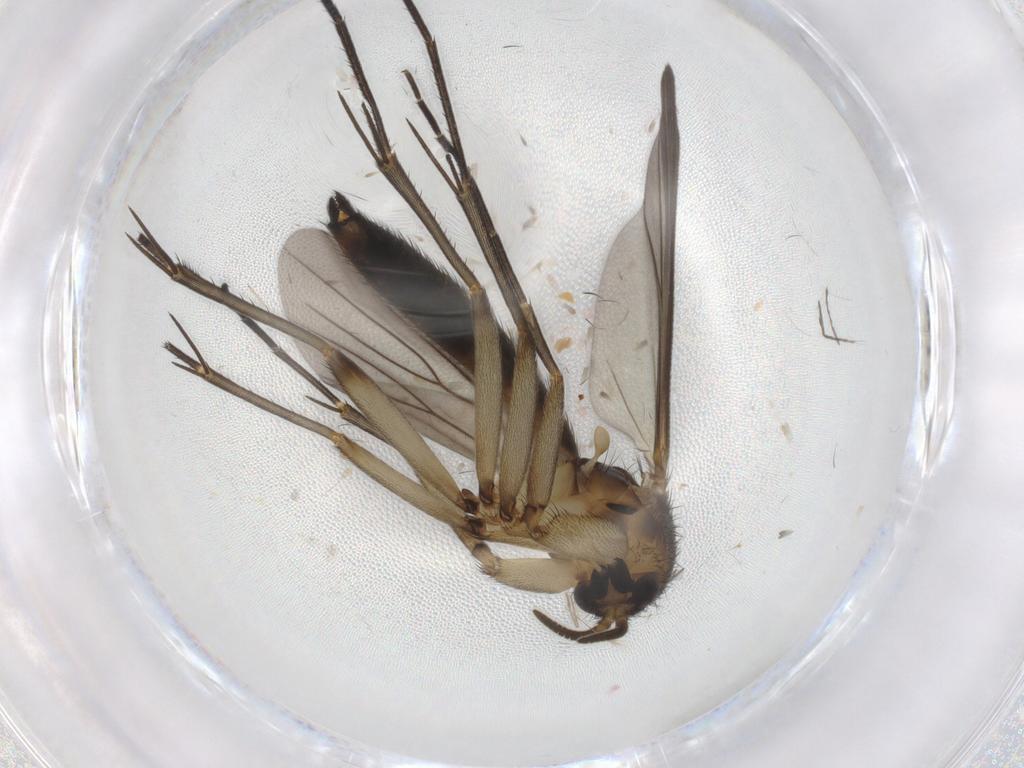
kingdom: Animalia
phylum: Arthropoda
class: Insecta
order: Diptera
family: Mycetophilidae
